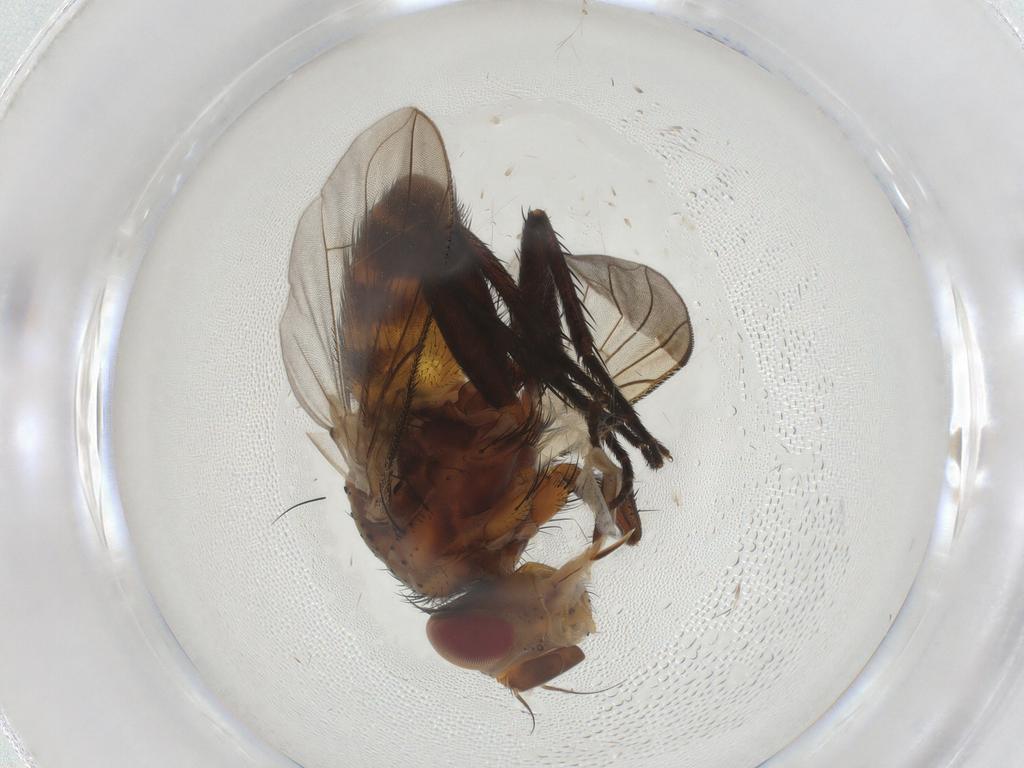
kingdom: Animalia
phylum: Arthropoda
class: Insecta
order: Diptera
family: Tachinidae
